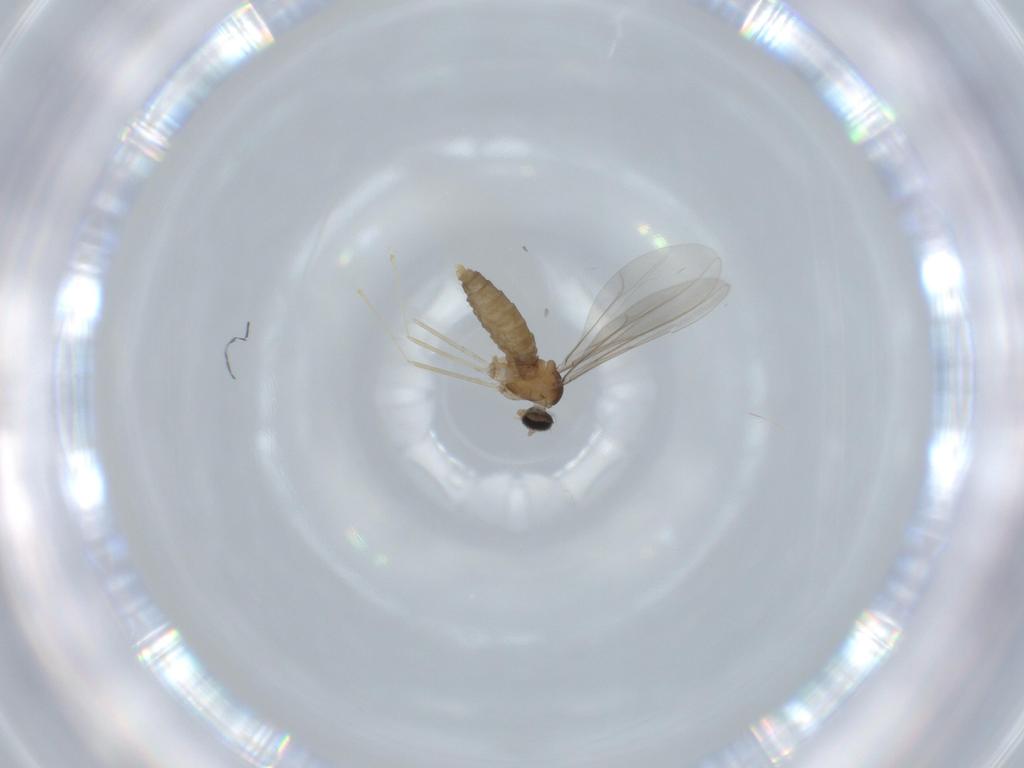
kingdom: Animalia
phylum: Arthropoda
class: Insecta
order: Diptera
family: Cecidomyiidae
